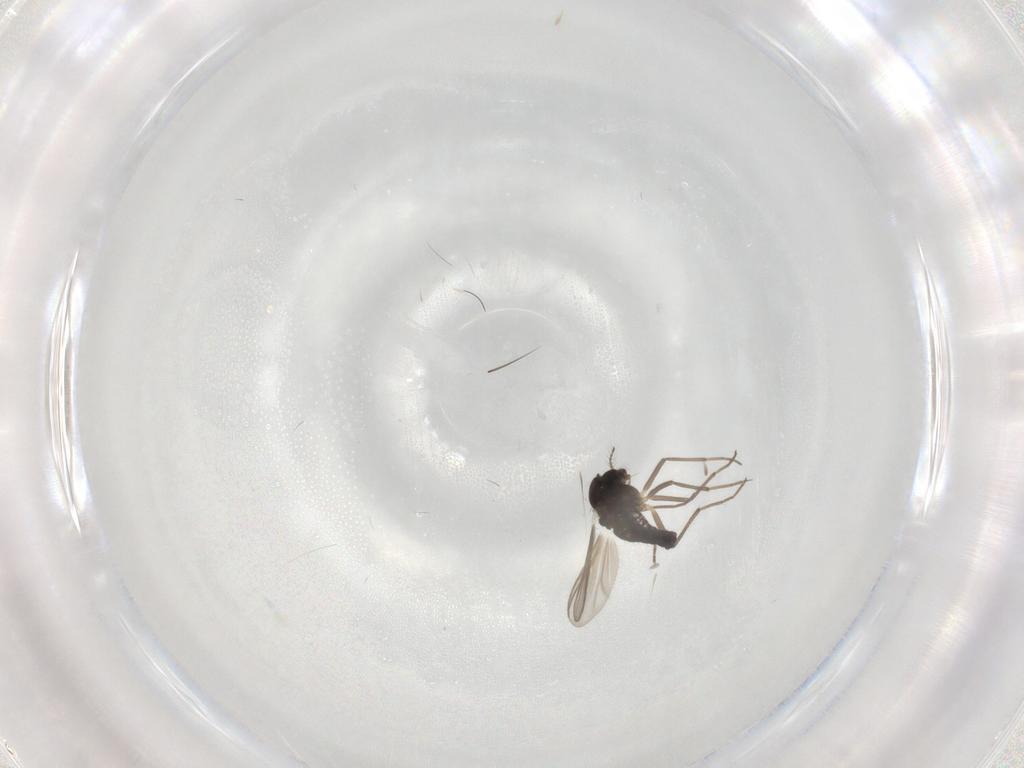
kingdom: Animalia
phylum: Arthropoda
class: Insecta
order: Diptera
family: Chironomidae
